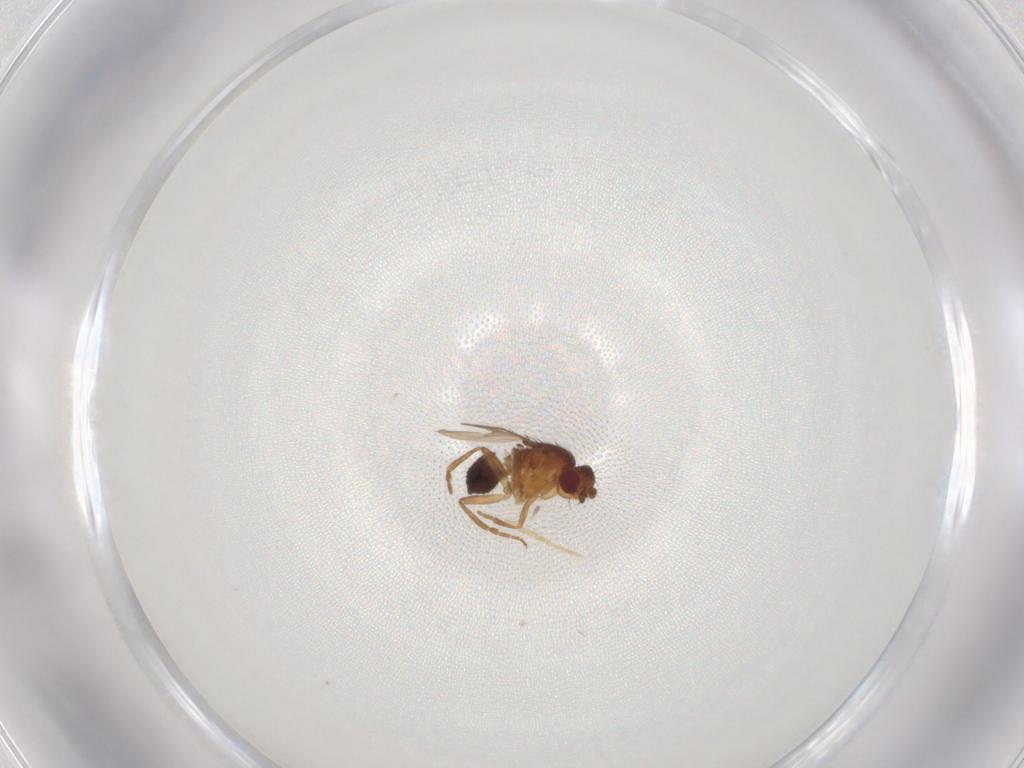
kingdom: Animalia
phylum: Arthropoda
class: Insecta
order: Diptera
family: Sphaeroceridae
